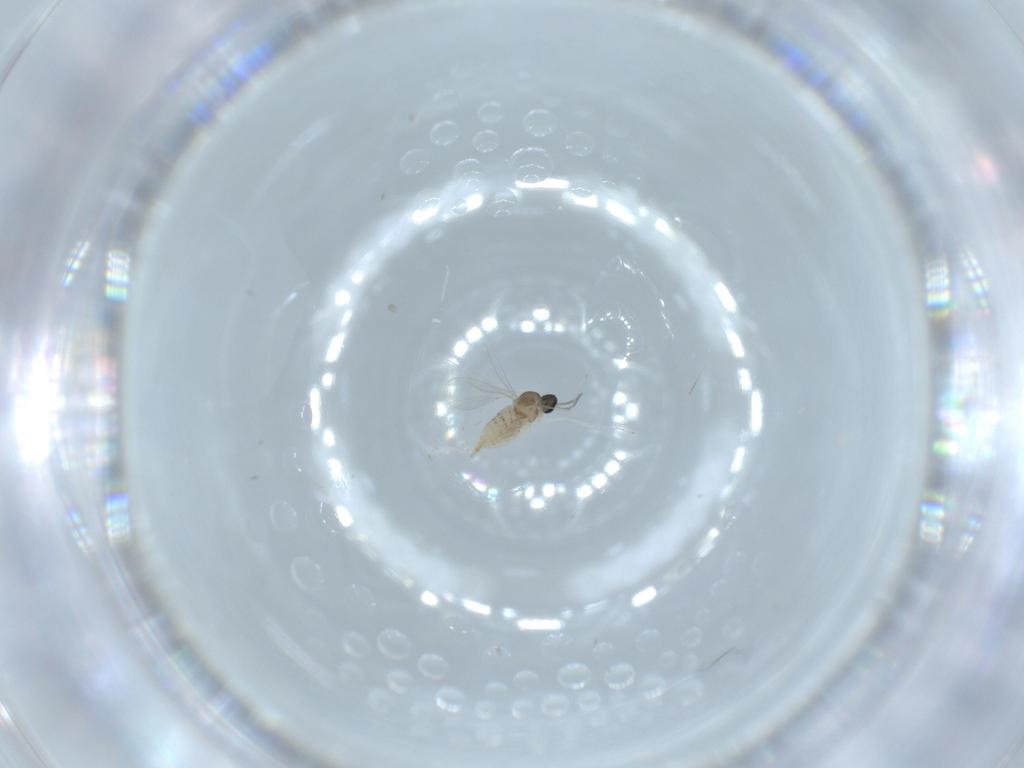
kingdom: Animalia
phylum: Arthropoda
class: Insecta
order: Diptera
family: Cecidomyiidae
